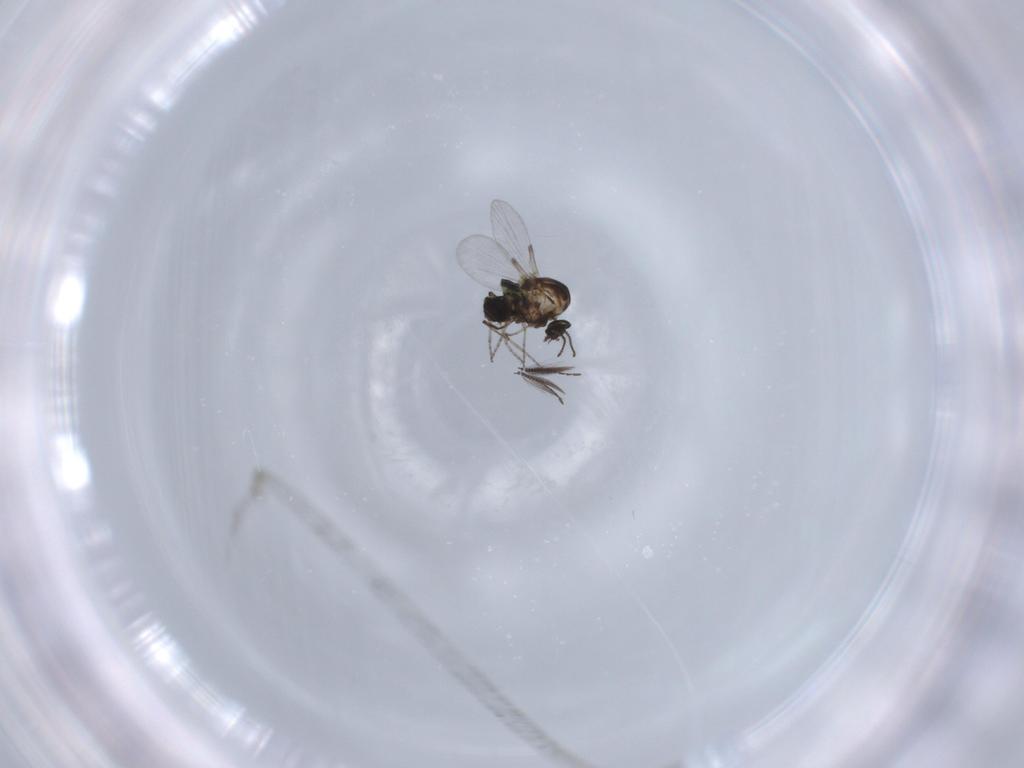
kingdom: Animalia
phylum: Arthropoda
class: Insecta
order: Diptera
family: Ceratopogonidae
